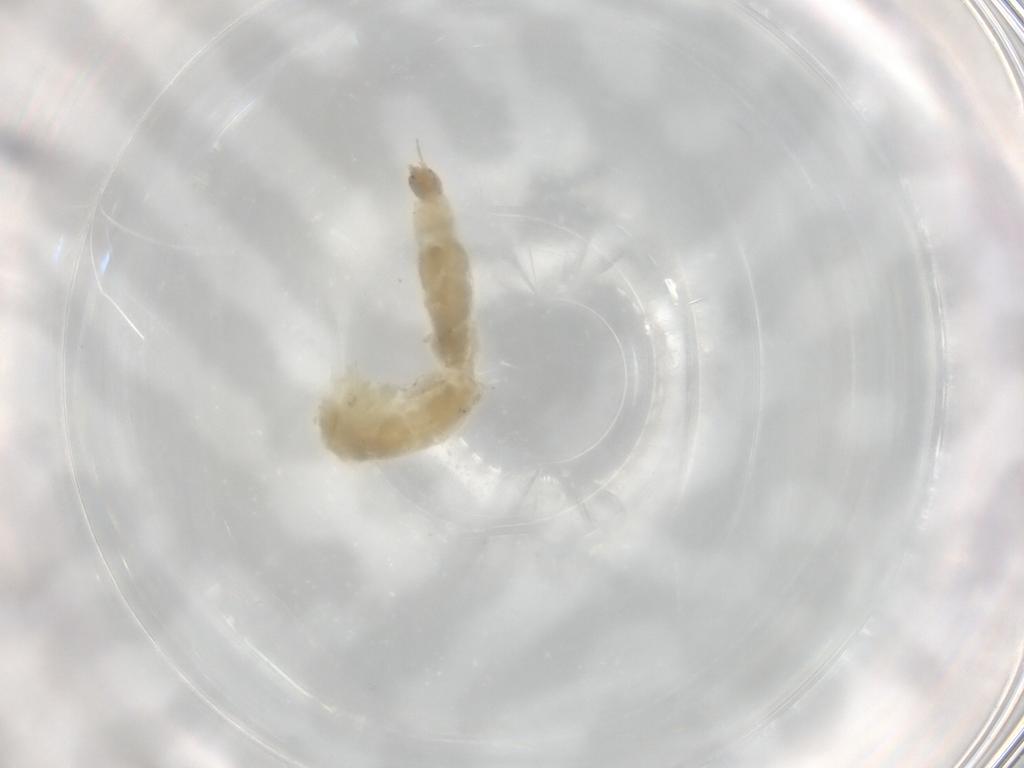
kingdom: Animalia
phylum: Arthropoda
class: Insecta
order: Diptera
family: Chironomidae
